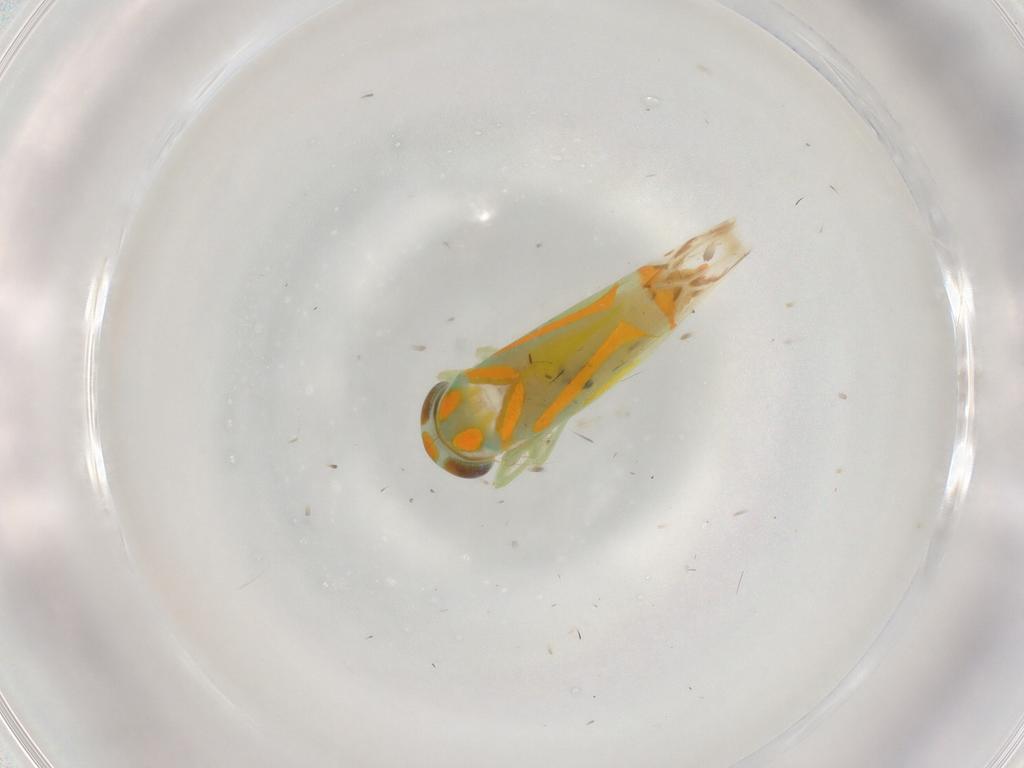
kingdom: Animalia
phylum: Arthropoda
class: Insecta
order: Hemiptera
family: Cicadellidae
